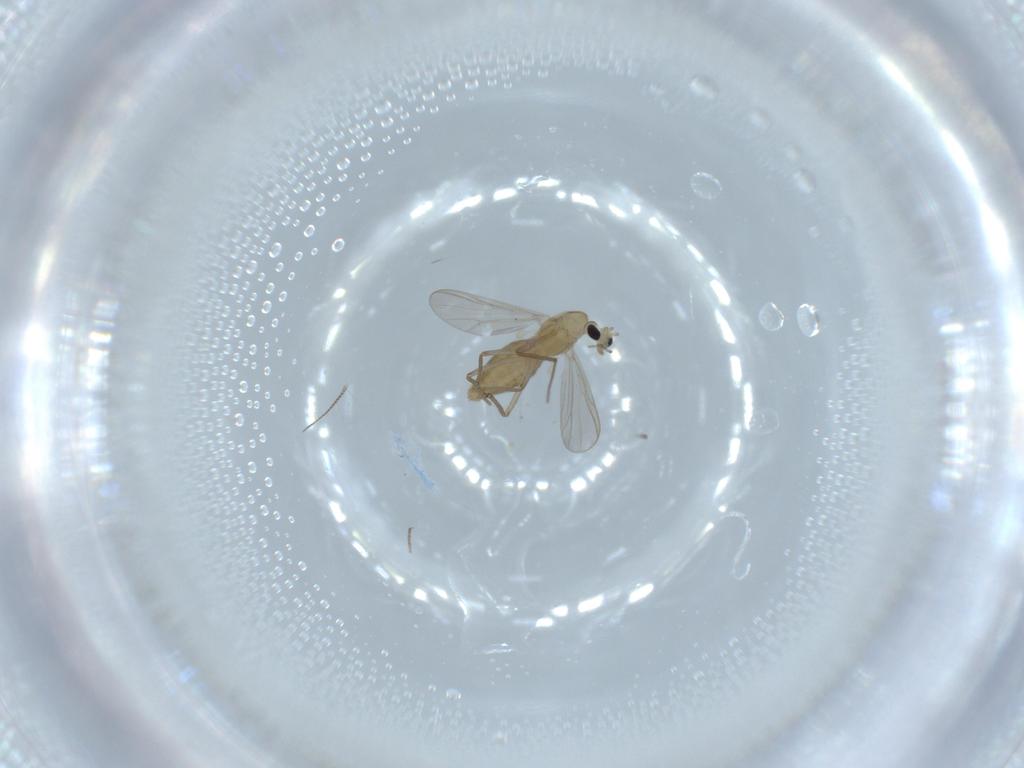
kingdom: Animalia
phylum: Arthropoda
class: Insecta
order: Diptera
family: Chironomidae
